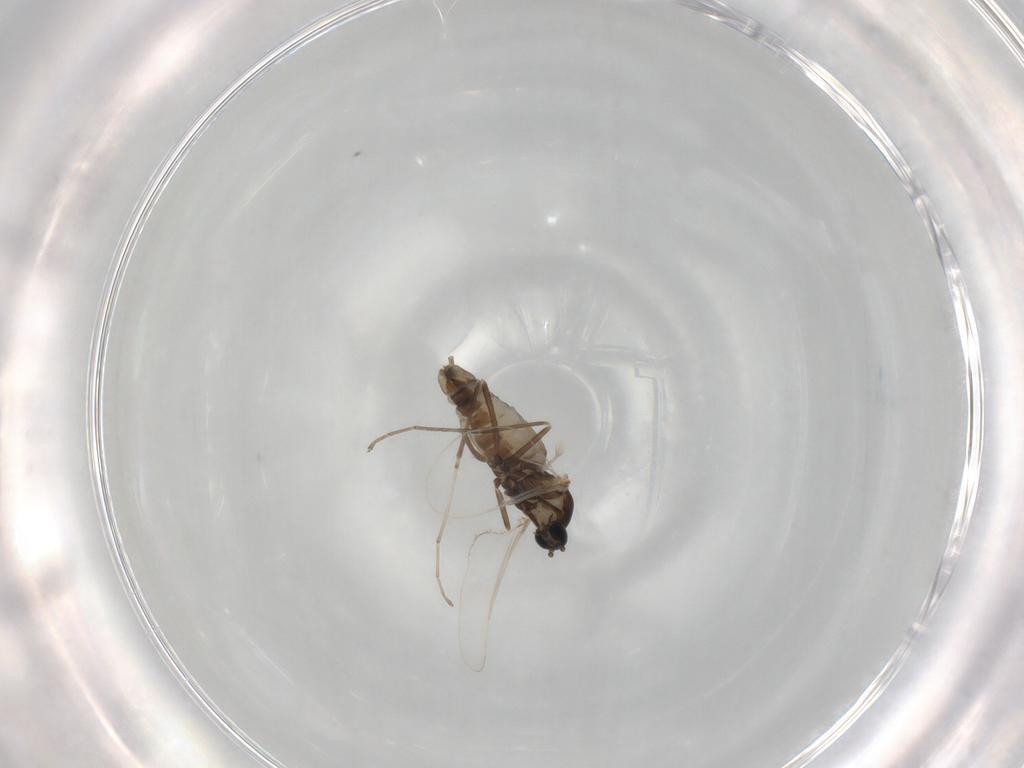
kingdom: Animalia
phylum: Arthropoda
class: Insecta
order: Diptera
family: Cecidomyiidae
